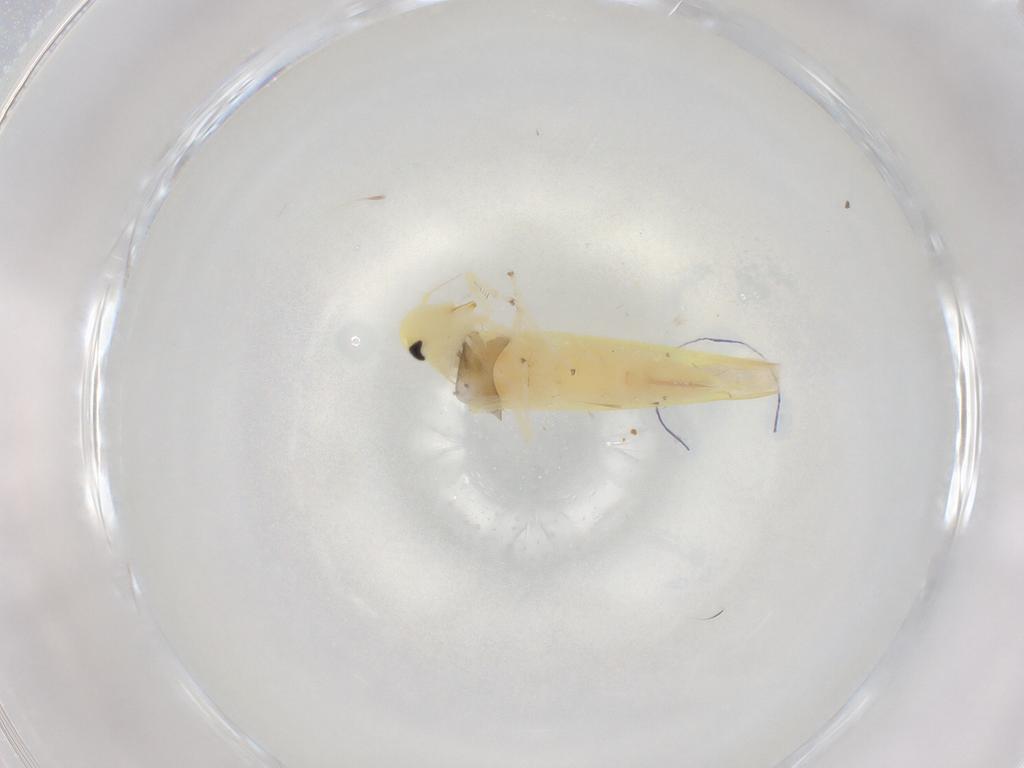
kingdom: Animalia
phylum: Arthropoda
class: Insecta
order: Hemiptera
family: Cicadellidae
